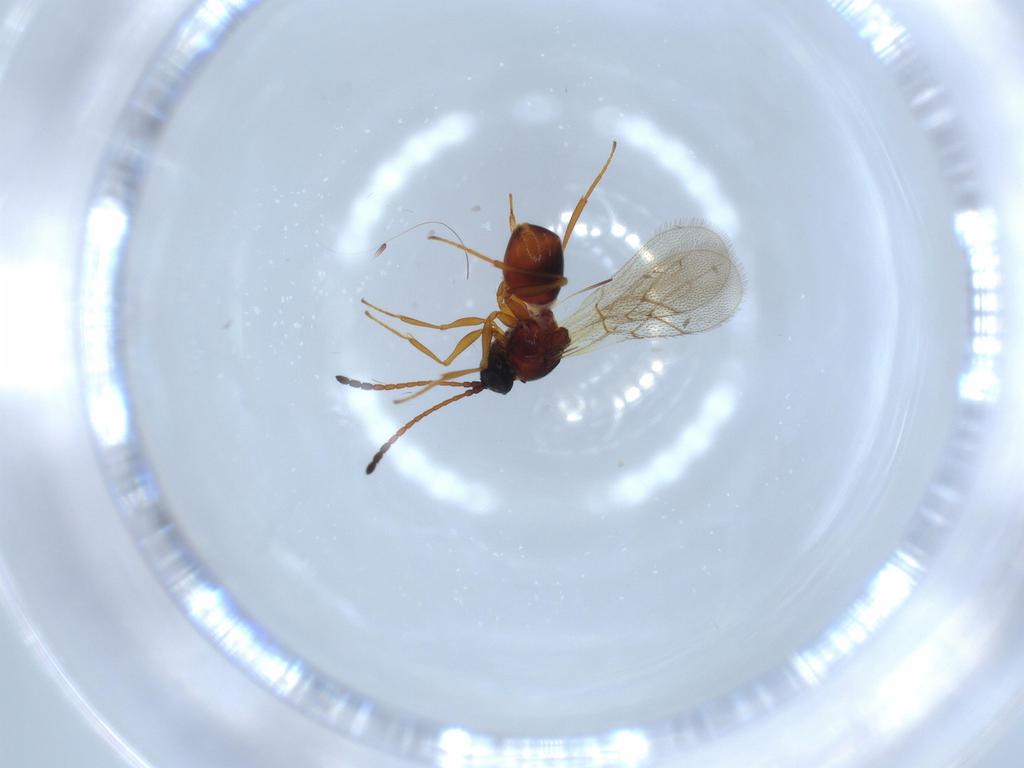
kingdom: Animalia
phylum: Arthropoda
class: Insecta
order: Hymenoptera
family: Figitidae
